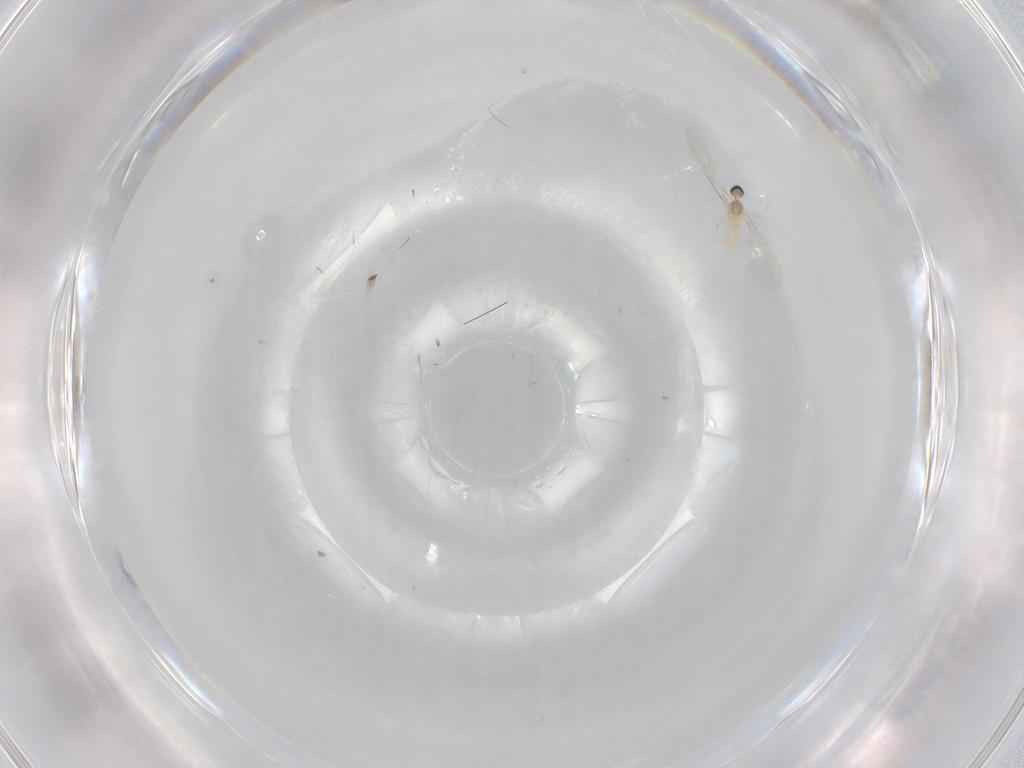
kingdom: Animalia
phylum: Arthropoda
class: Insecta
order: Diptera
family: Cecidomyiidae
